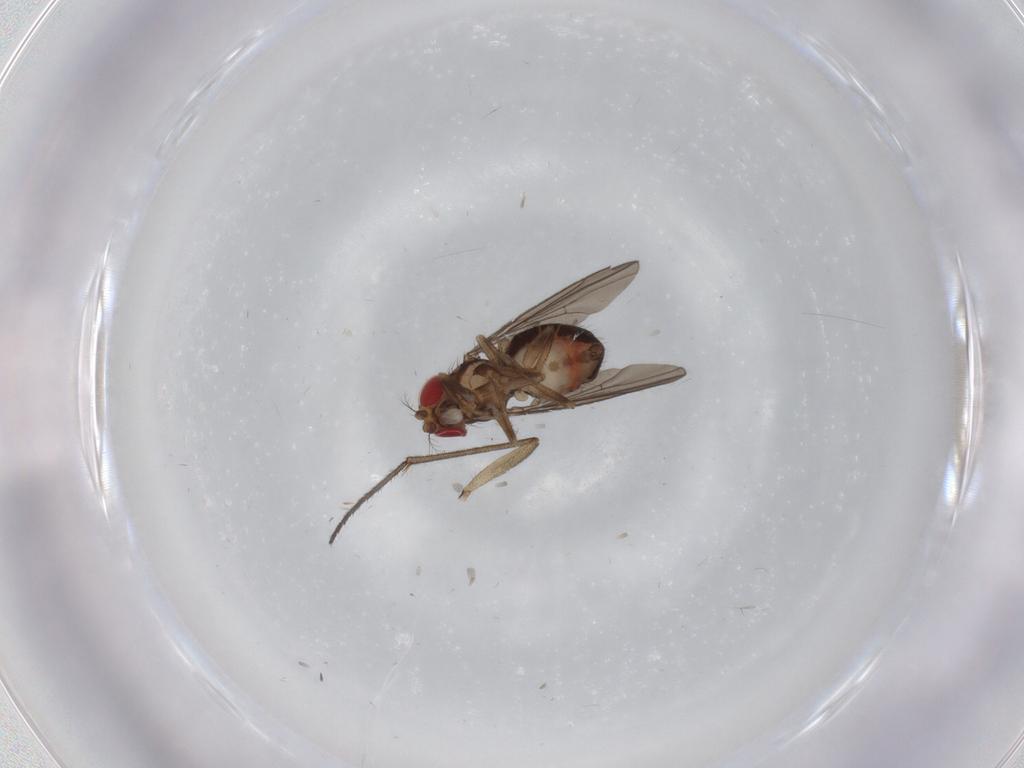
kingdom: Animalia
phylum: Arthropoda
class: Insecta
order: Diptera
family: Drosophilidae
